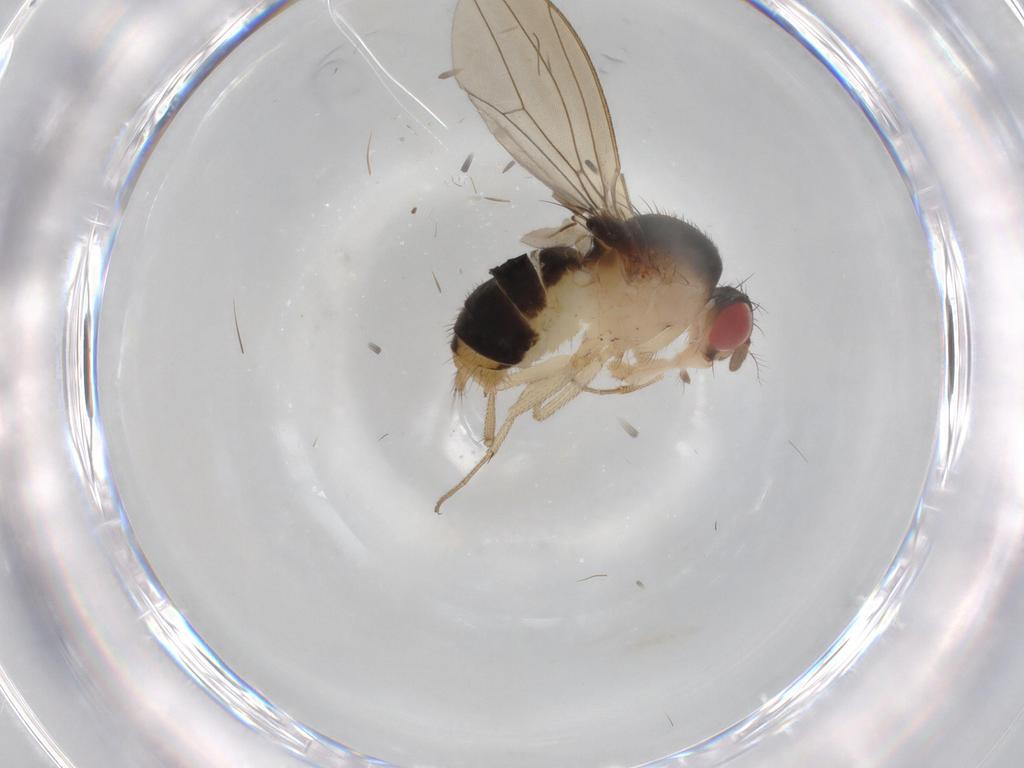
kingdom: Animalia
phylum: Arthropoda
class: Insecta
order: Diptera
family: Drosophilidae
